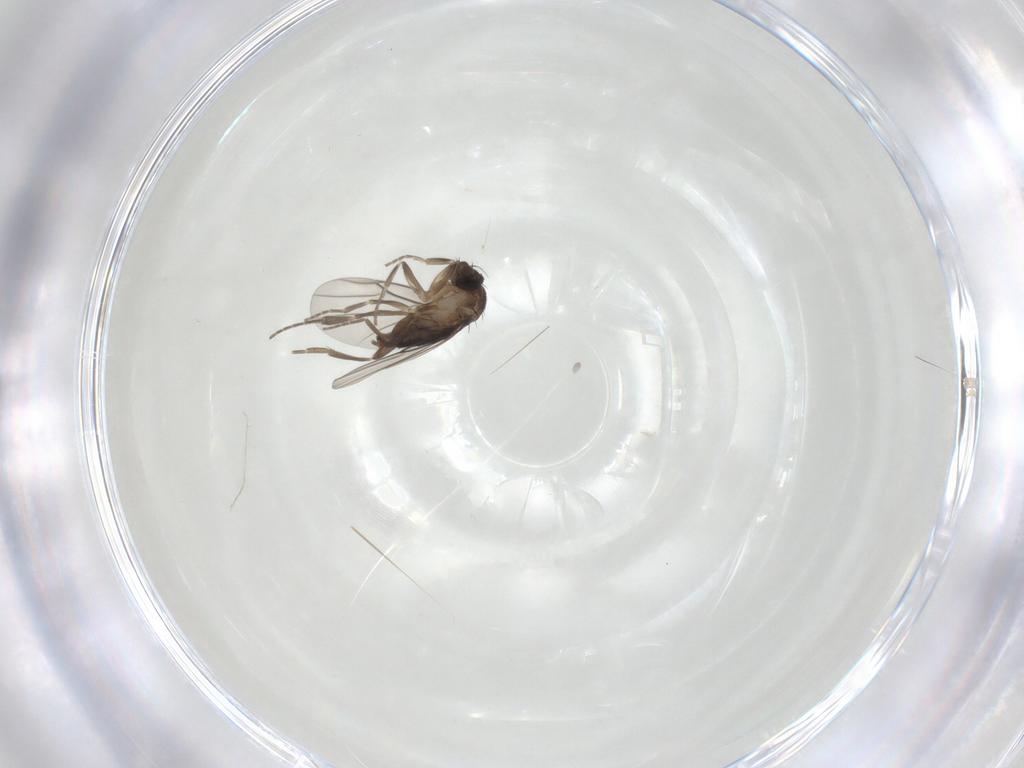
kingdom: Animalia
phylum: Arthropoda
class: Insecta
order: Diptera
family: Phoridae
